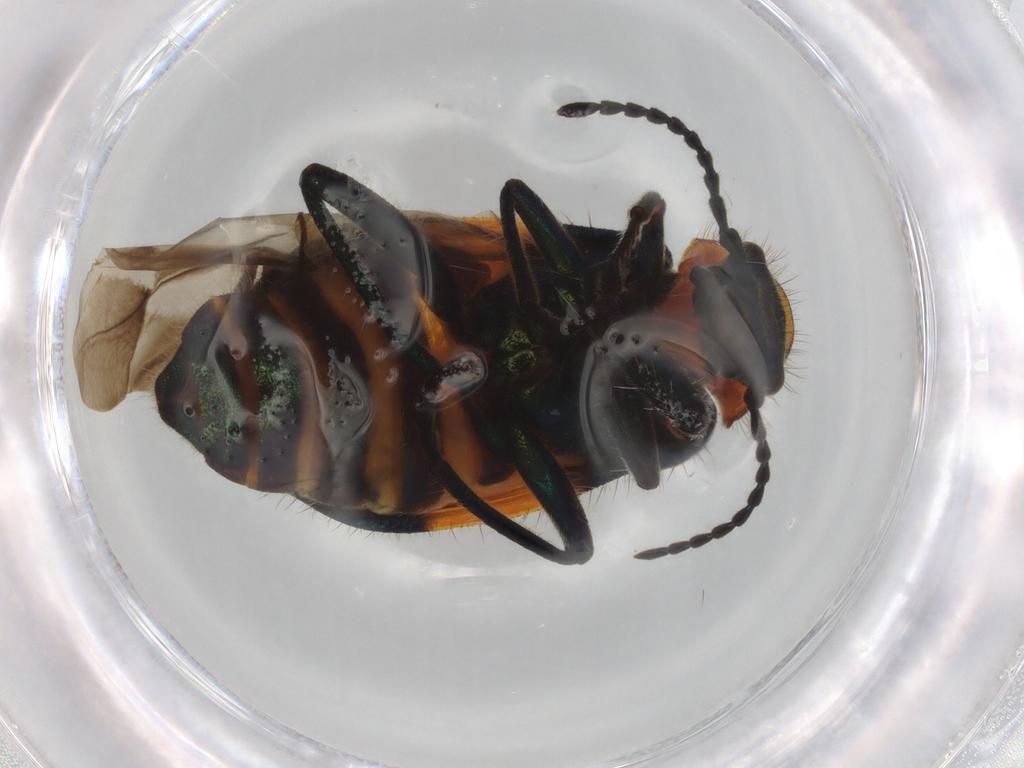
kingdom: Animalia
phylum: Arthropoda
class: Insecta
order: Coleoptera
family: Melyridae
